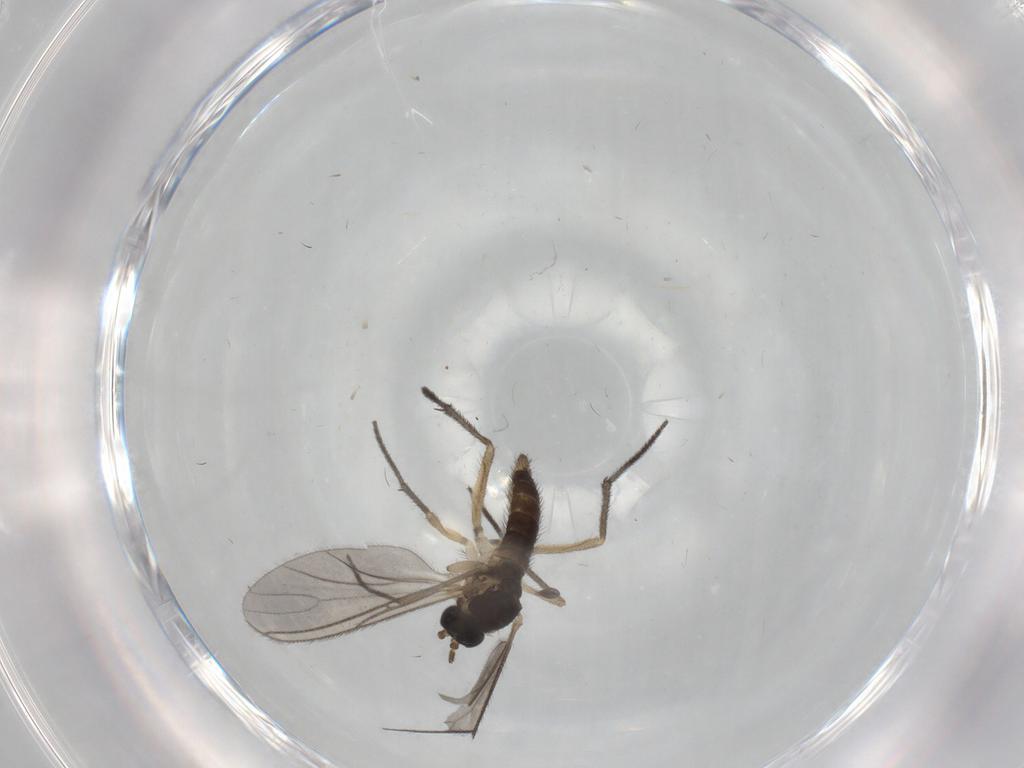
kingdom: Animalia
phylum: Arthropoda
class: Insecta
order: Diptera
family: Sciaridae
